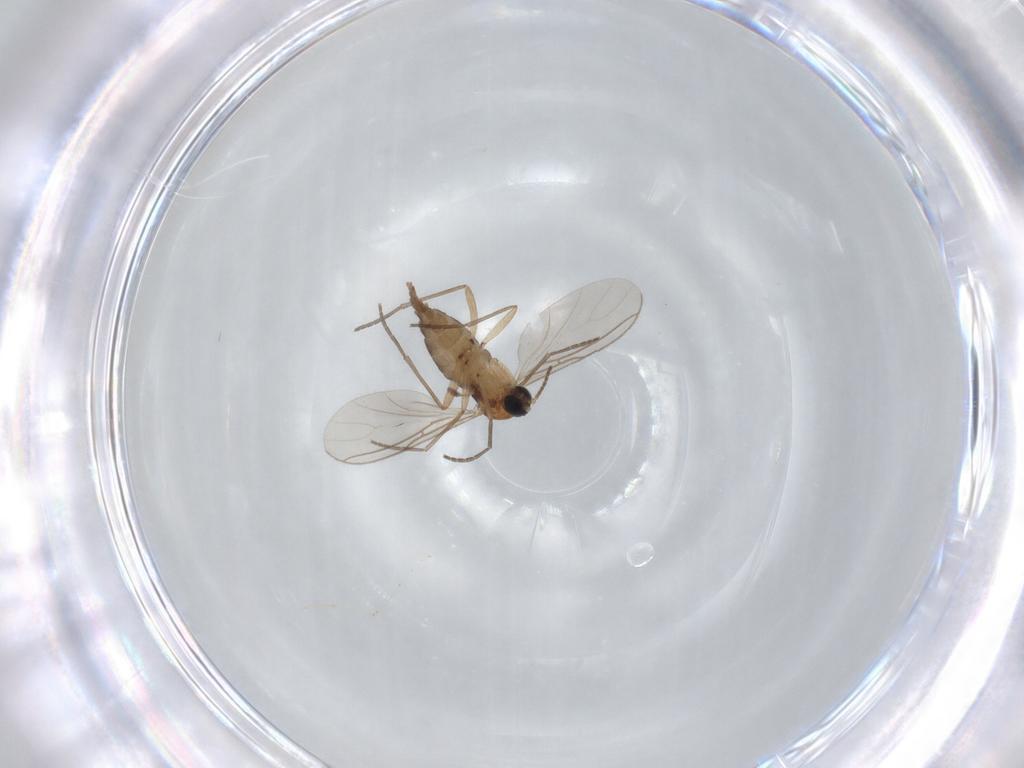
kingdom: Animalia
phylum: Arthropoda
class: Insecta
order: Diptera
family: Sciaridae
